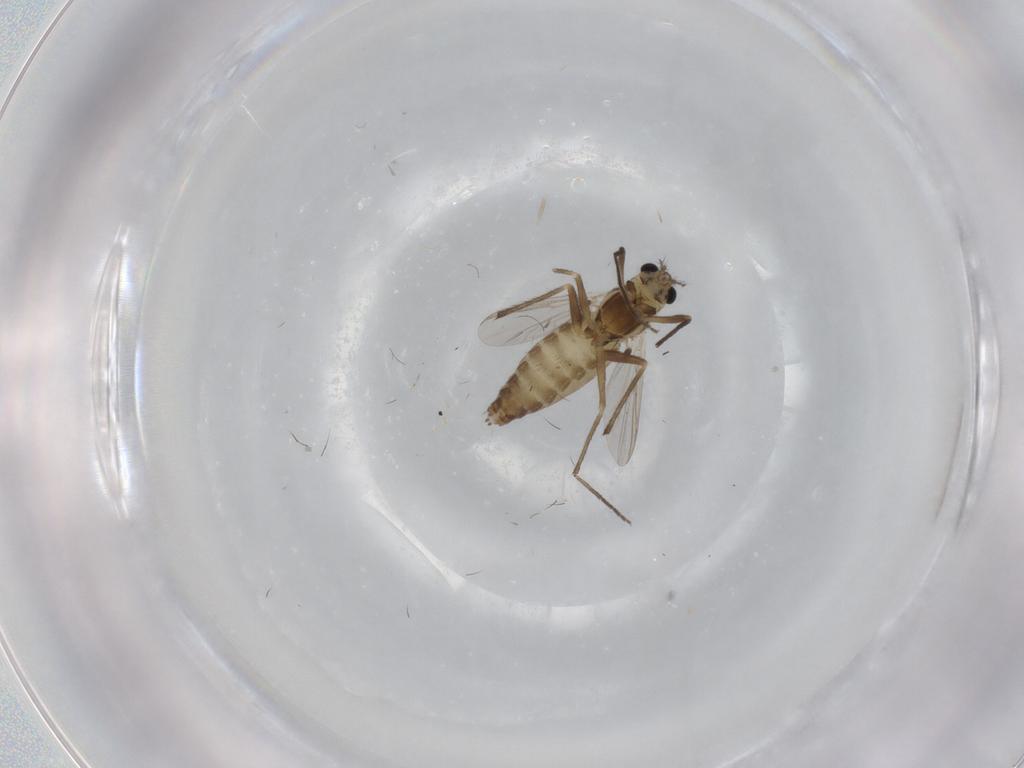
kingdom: Animalia
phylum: Arthropoda
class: Insecta
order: Diptera
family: Chironomidae
